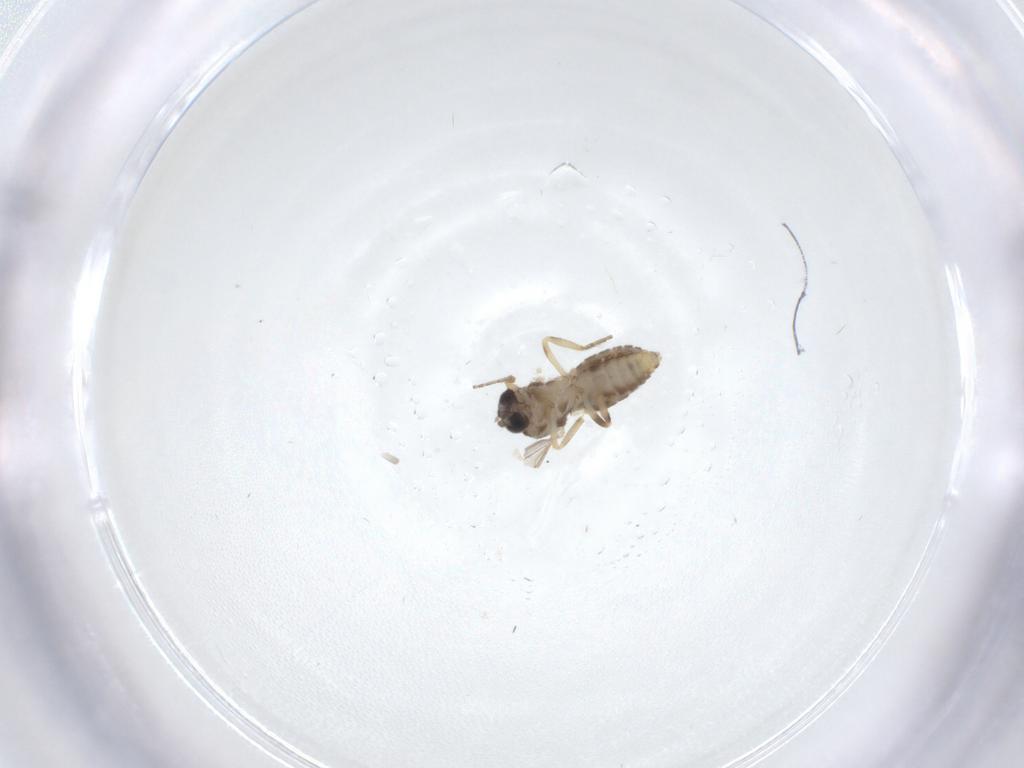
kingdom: Animalia
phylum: Arthropoda
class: Insecta
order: Diptera
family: Ceratopogonidae
